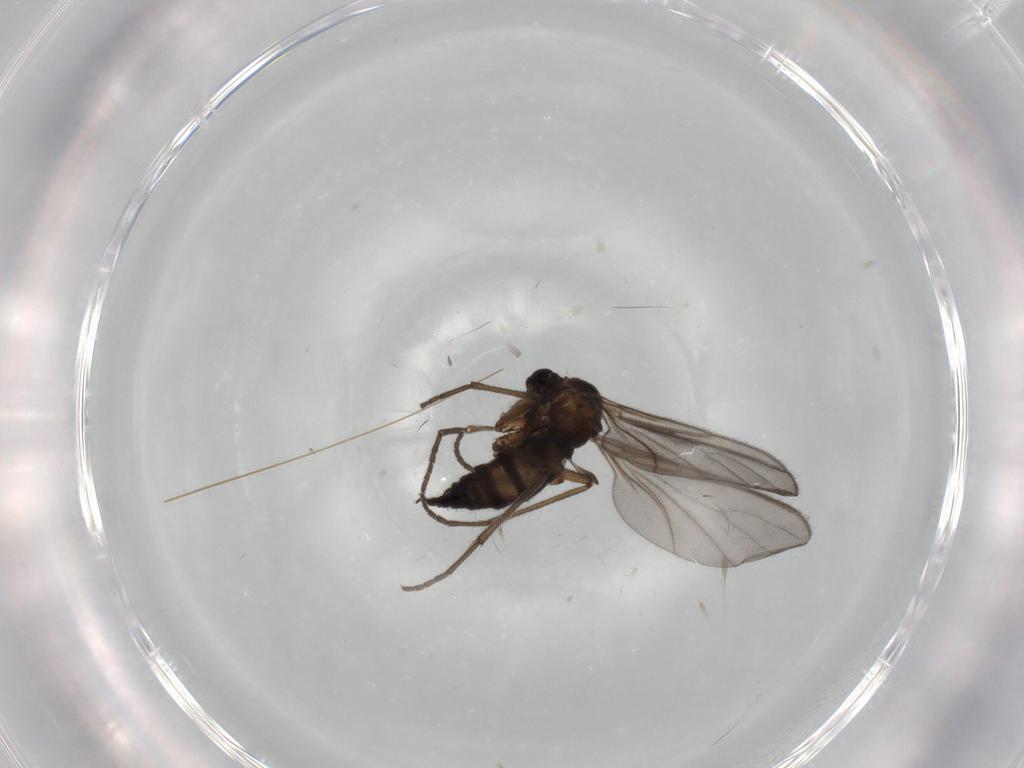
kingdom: Animalia
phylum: Arthropoda
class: Insecta
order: Diptera
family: Sciaridae
